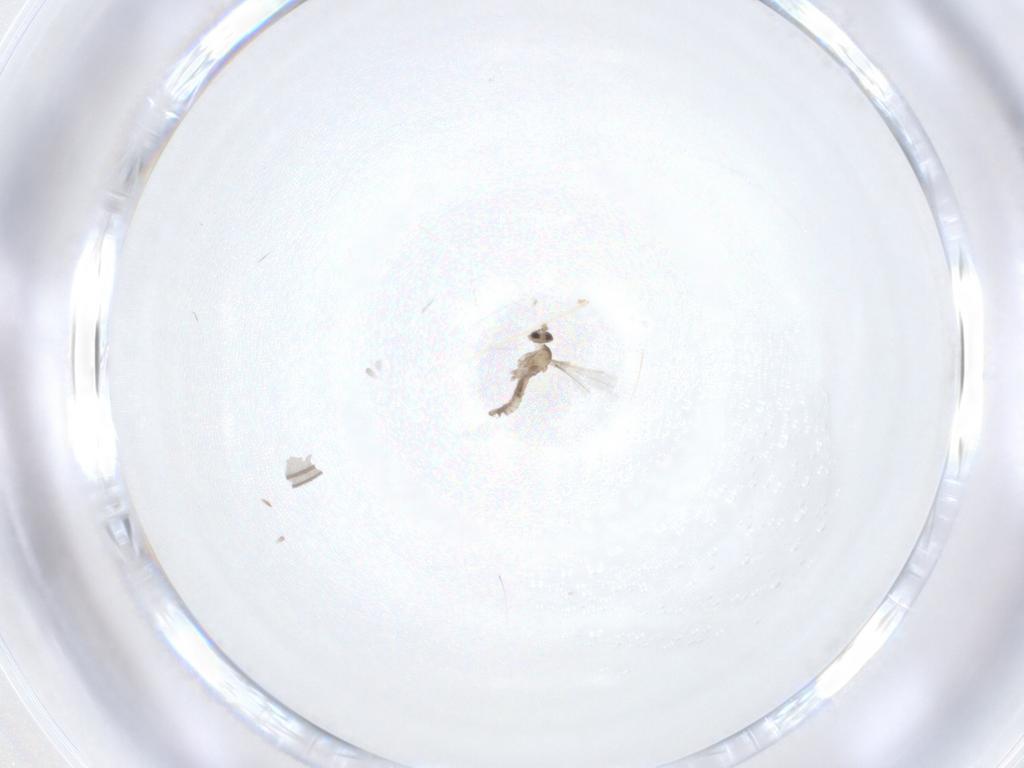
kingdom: Animalia
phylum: Arthropoda
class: Insecta
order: Diptera
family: Cecidomyiidae
